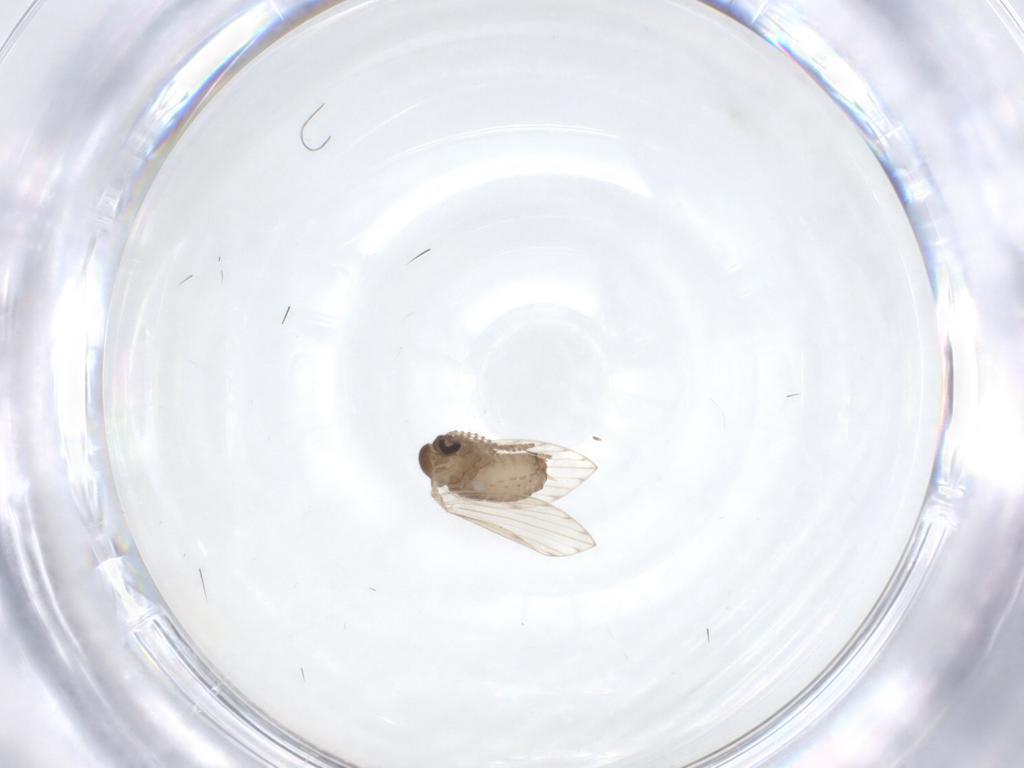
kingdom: Animalia
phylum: Arthropoda
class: Insecta
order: Diptera
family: Psychodidae
